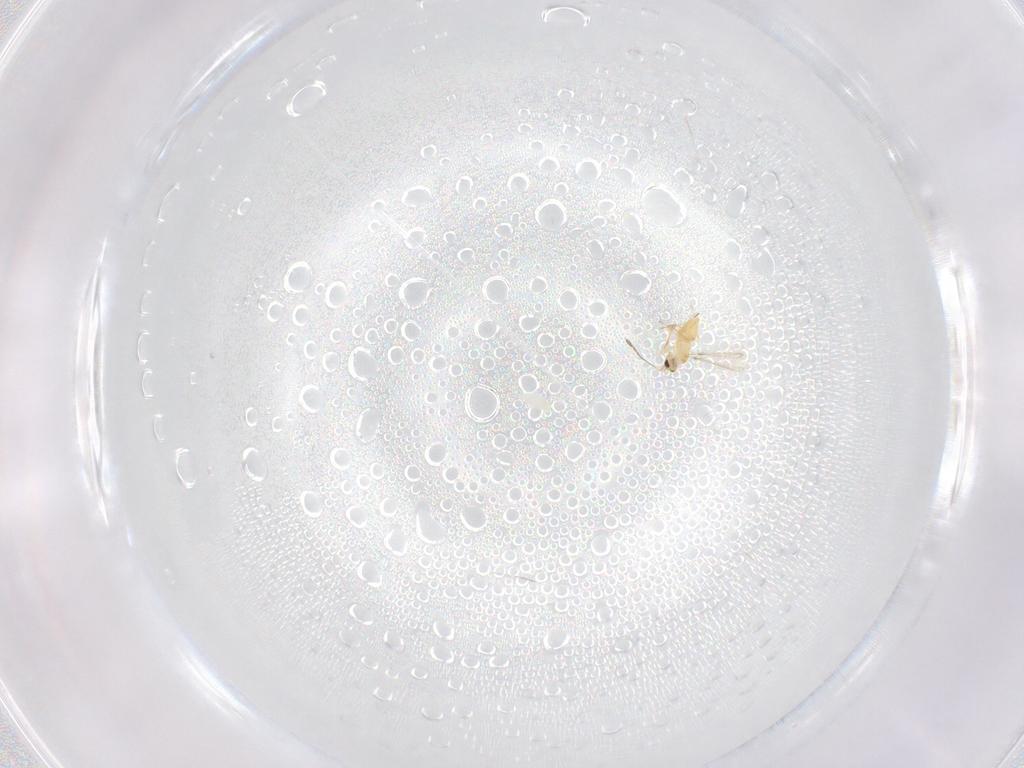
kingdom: Animalia
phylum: Arthropoda
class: Insecta
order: Hymenoptera
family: Mymaridae
